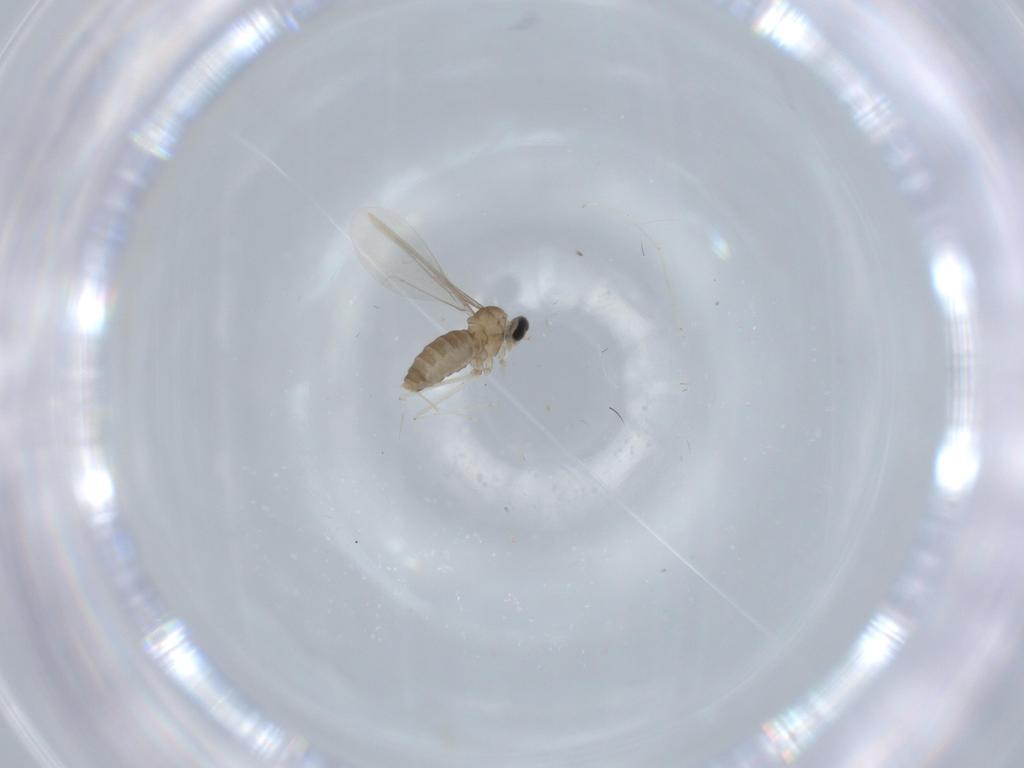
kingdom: Animalia
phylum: Arthropoda
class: Insecta
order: Diptera
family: Cecidomyiidae
